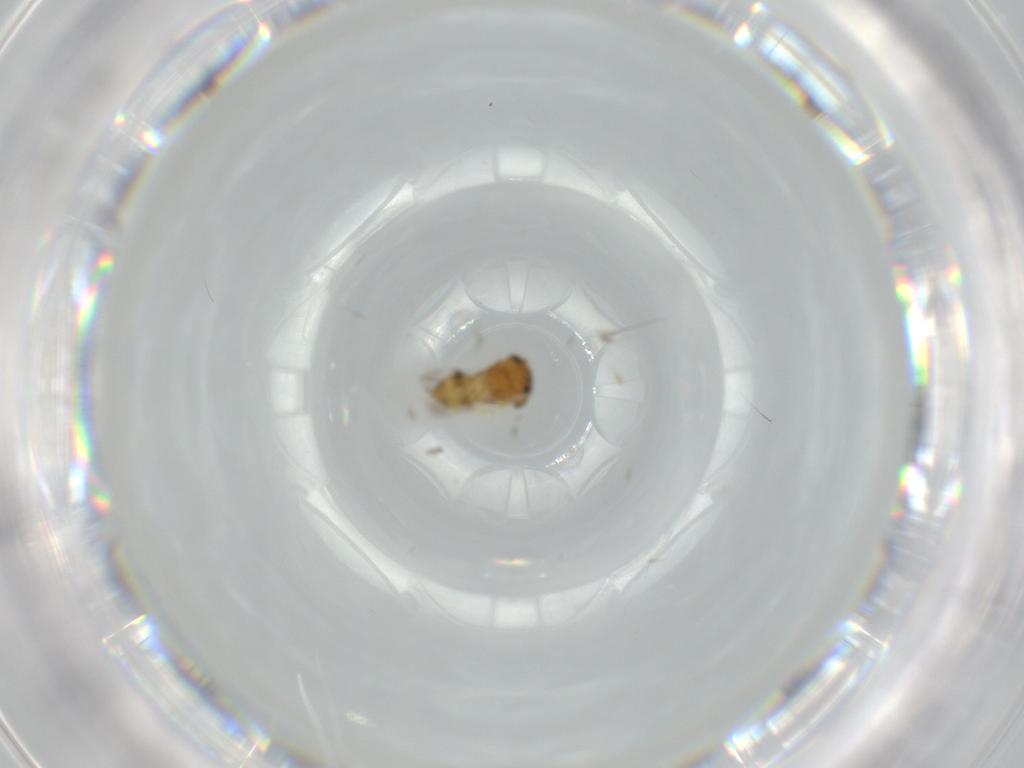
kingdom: Animalia
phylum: Arthropoda
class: Insecta
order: Hymenoptera
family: Scelionidae
